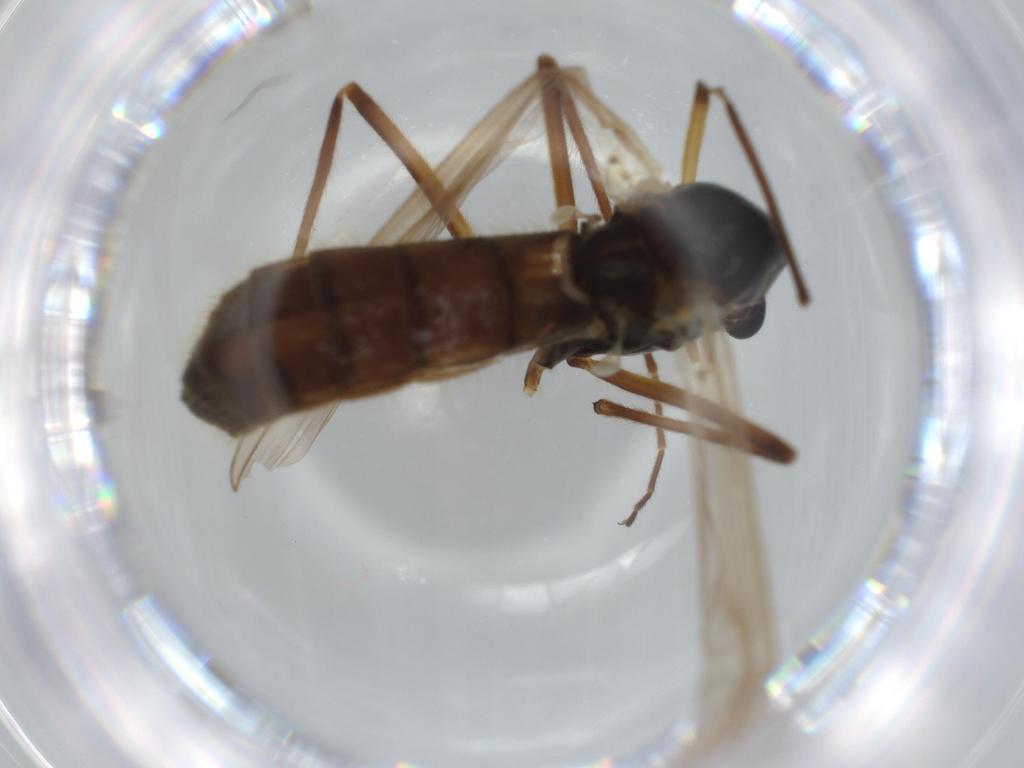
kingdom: Animalia
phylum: Arthropoda
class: Insecta
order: Diptera
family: Chironomidae
